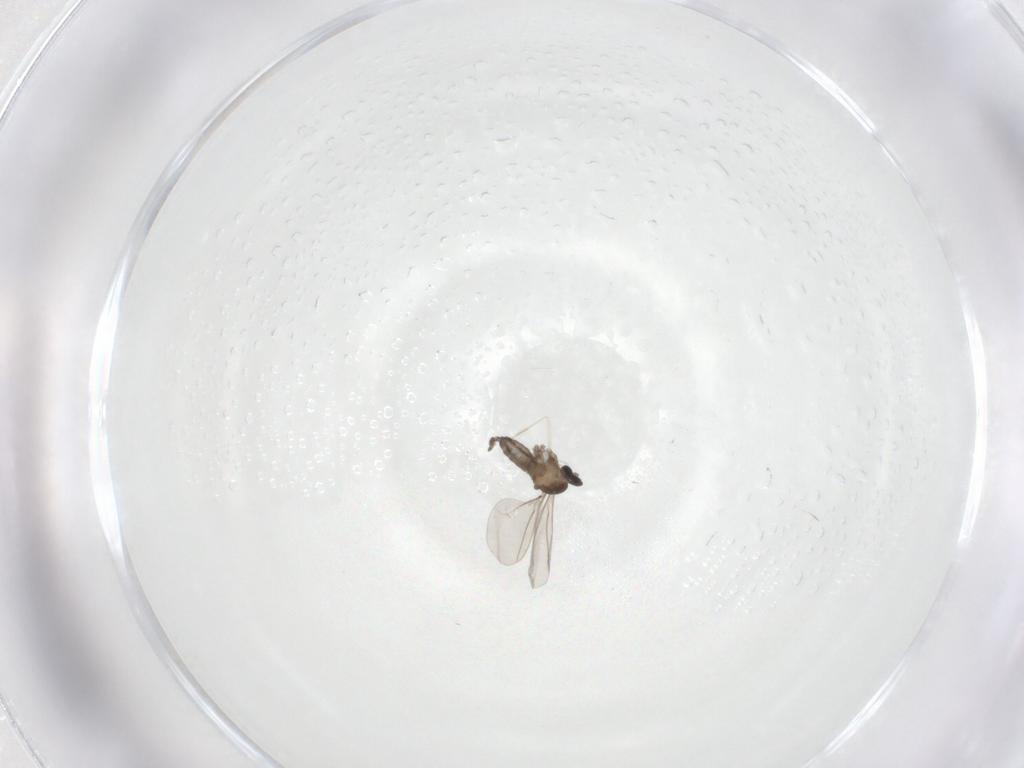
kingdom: Animalia
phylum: Arthropoda
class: Insecta
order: Diptera
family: Cecidomyiidae
